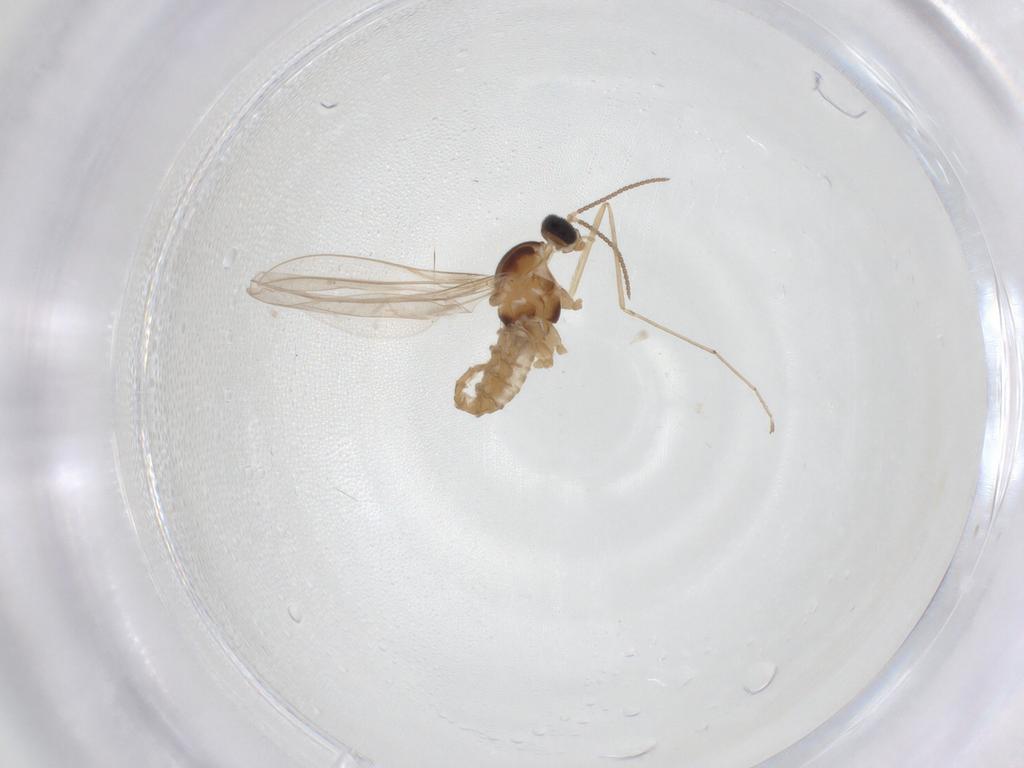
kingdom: Animalia
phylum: Arthropoda
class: Insecta
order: Diptera
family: Cecidomyiidae
